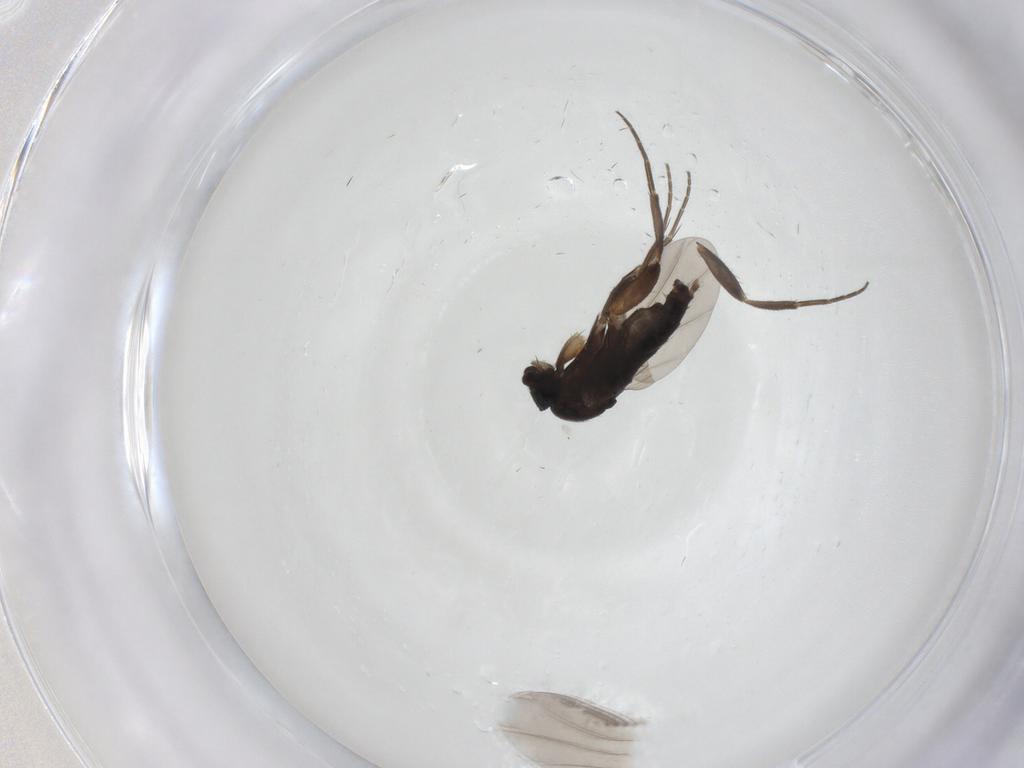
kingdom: Animalia
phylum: Arthropoda
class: Insecta
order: Diptera
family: Phoridae
